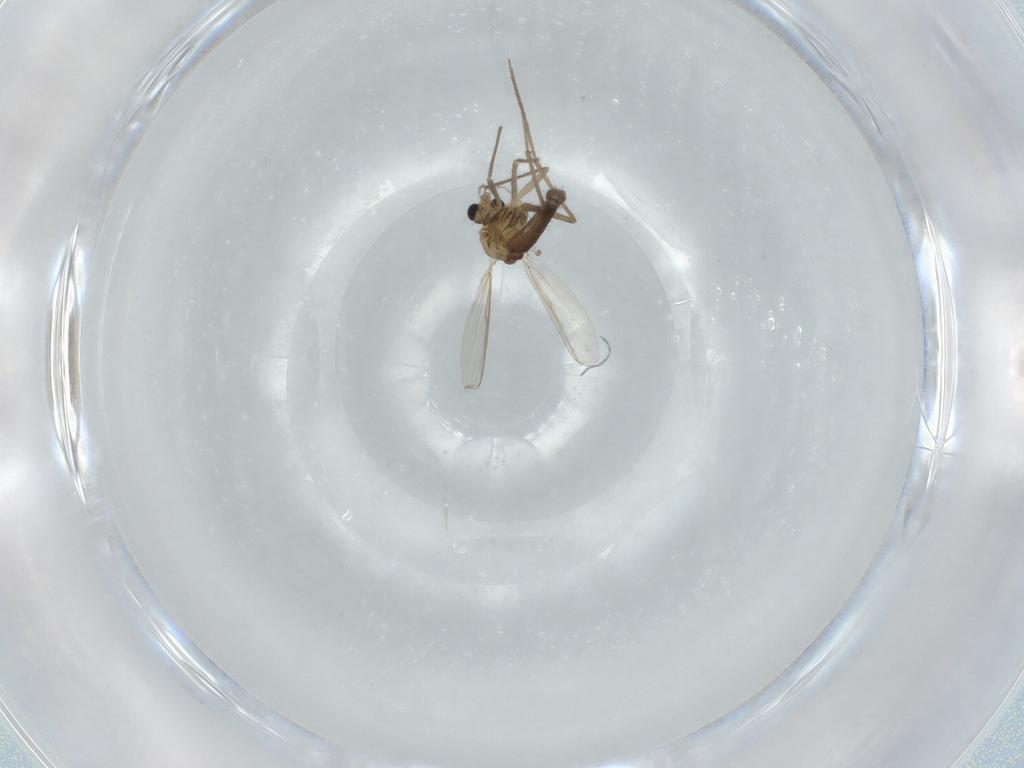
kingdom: Animalia
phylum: Arthropoda
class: Insecta
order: Diptera
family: Chironomidae
